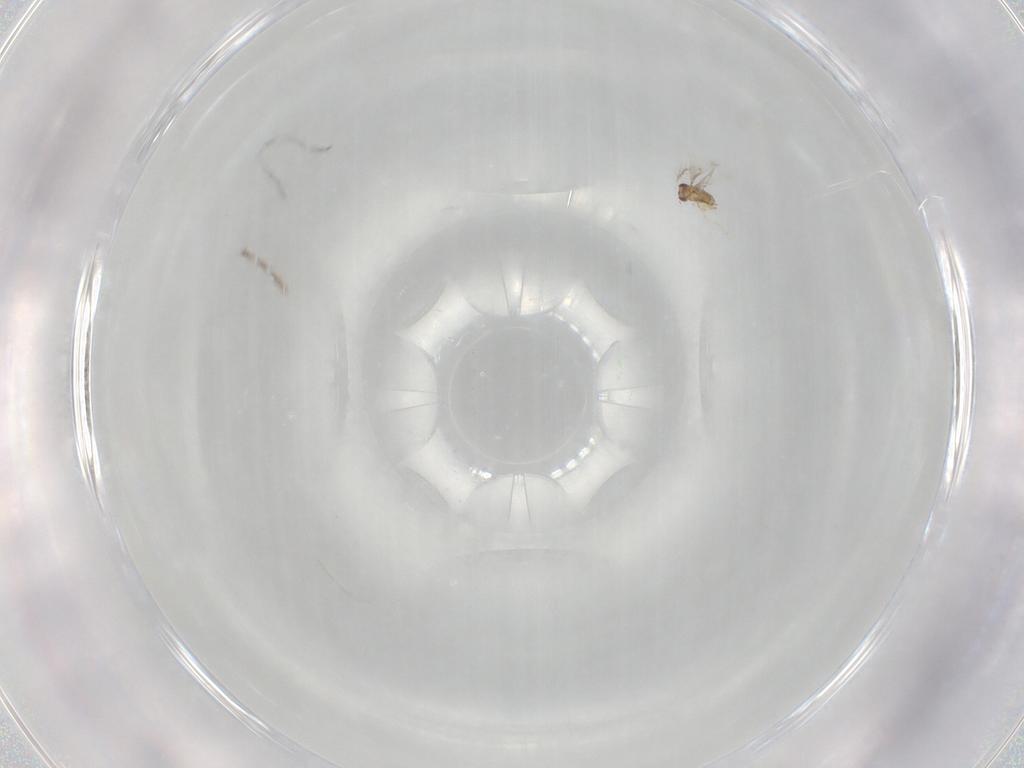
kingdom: Animalia
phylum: Arthropoda
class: Insecta
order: Hymenoptera
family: Trichogrammatidae
